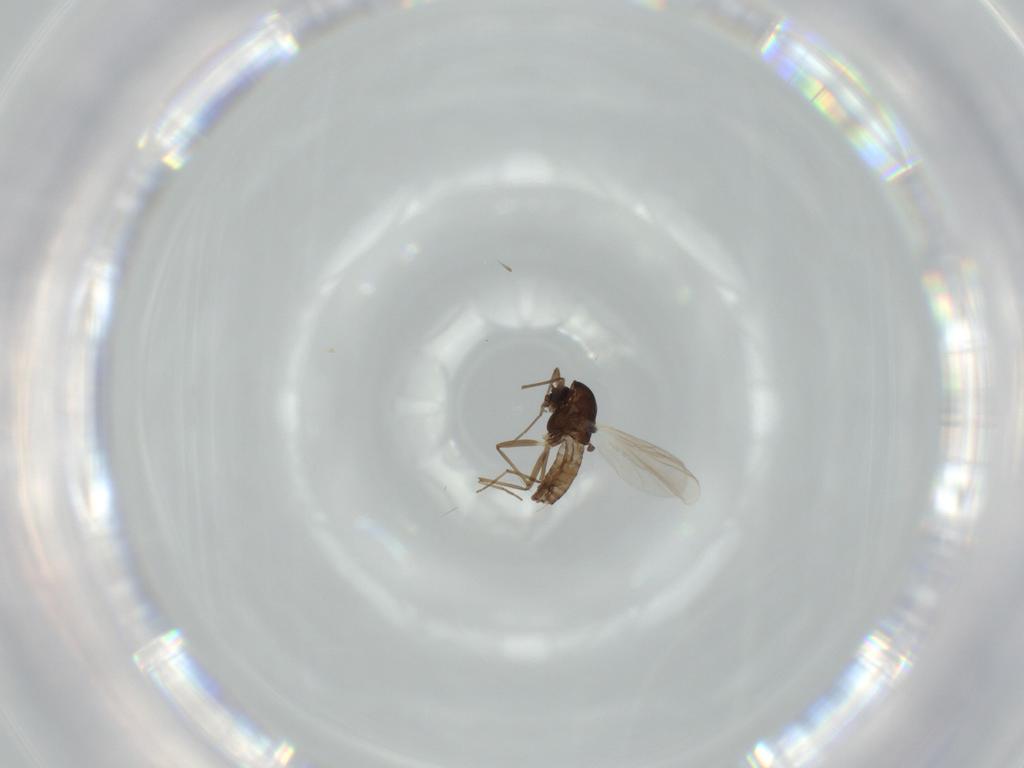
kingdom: Animalia
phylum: Arthropoda
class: Insecta
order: Diptera
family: Chironomidae
